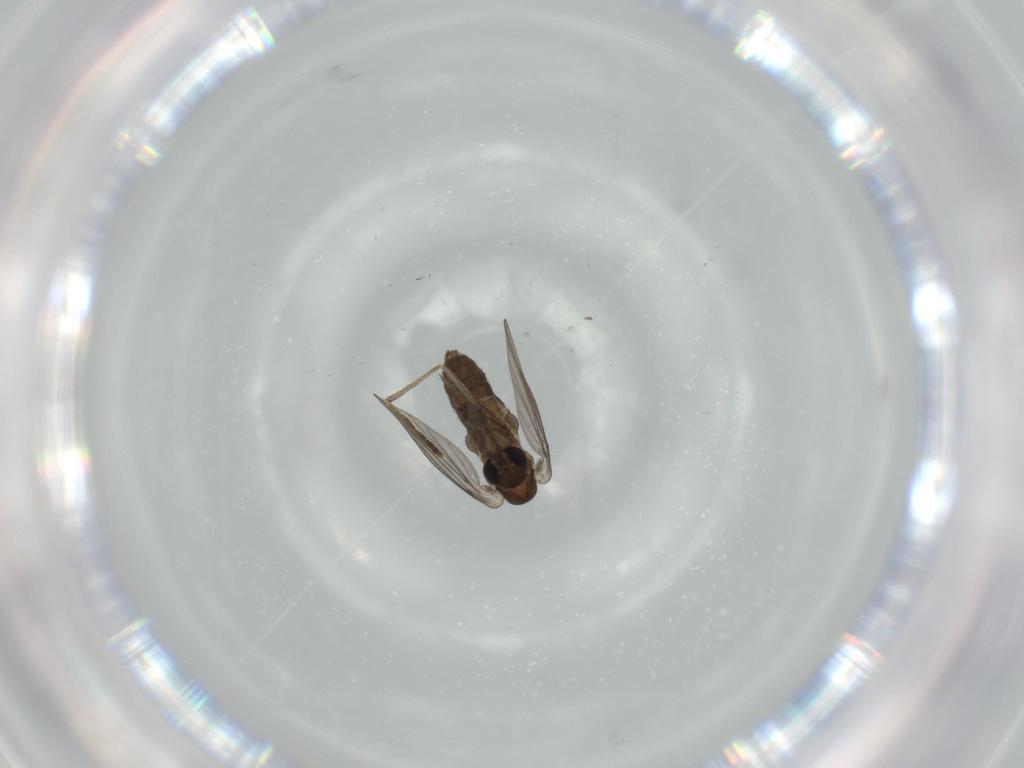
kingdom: Animalia
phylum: Arthropoda
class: Insecta
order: Diptera
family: Psychodidae
